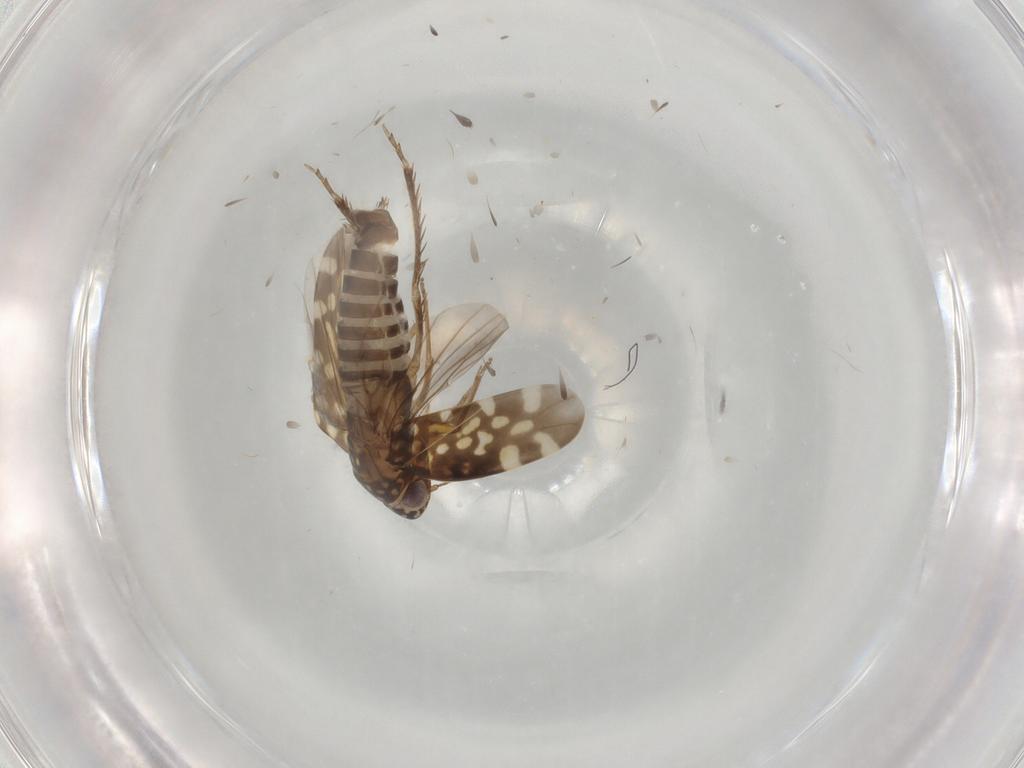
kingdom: Animalia
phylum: Arthropoda
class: Insecta
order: Hemiptera
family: Cicadellidae
